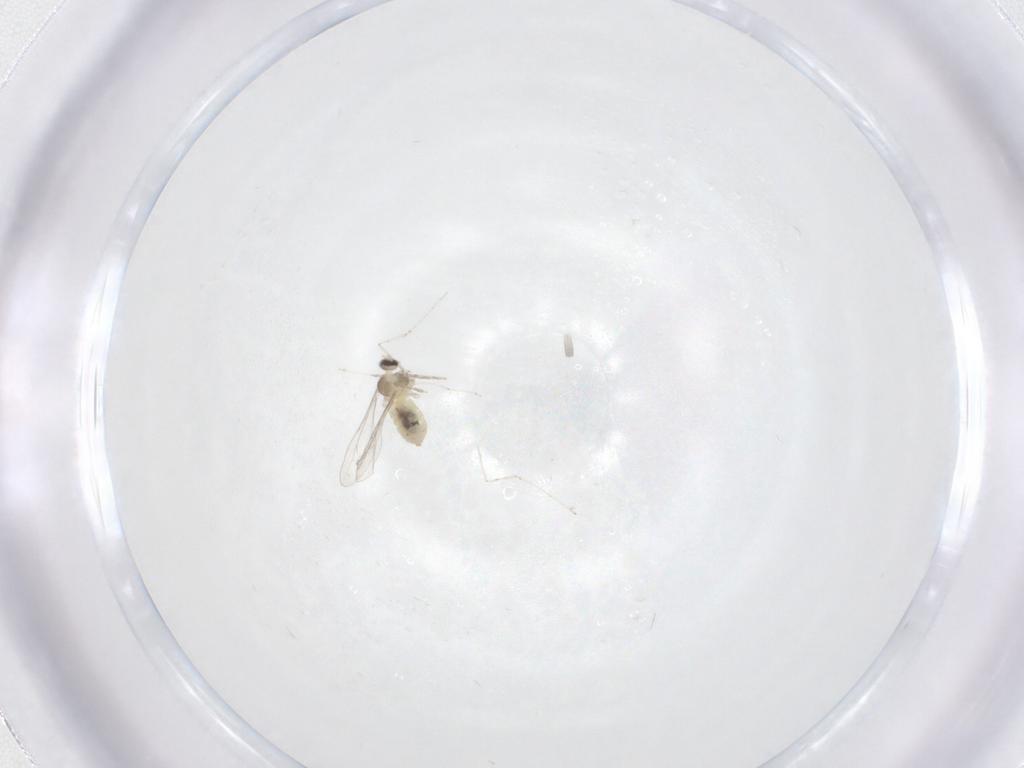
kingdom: Animalia
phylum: Arthropoda
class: Insecta
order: Diptera
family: Cecidomyiidae
